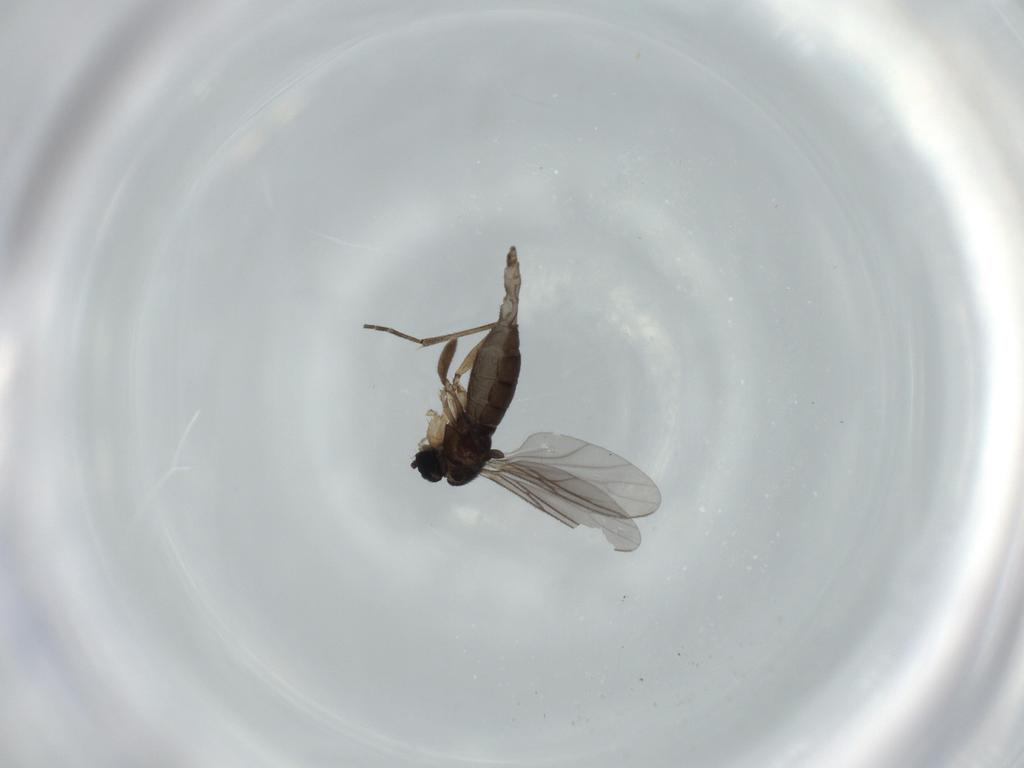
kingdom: Animalia
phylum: Arthropoda
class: Insecta
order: Diptera
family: Sciaridae
